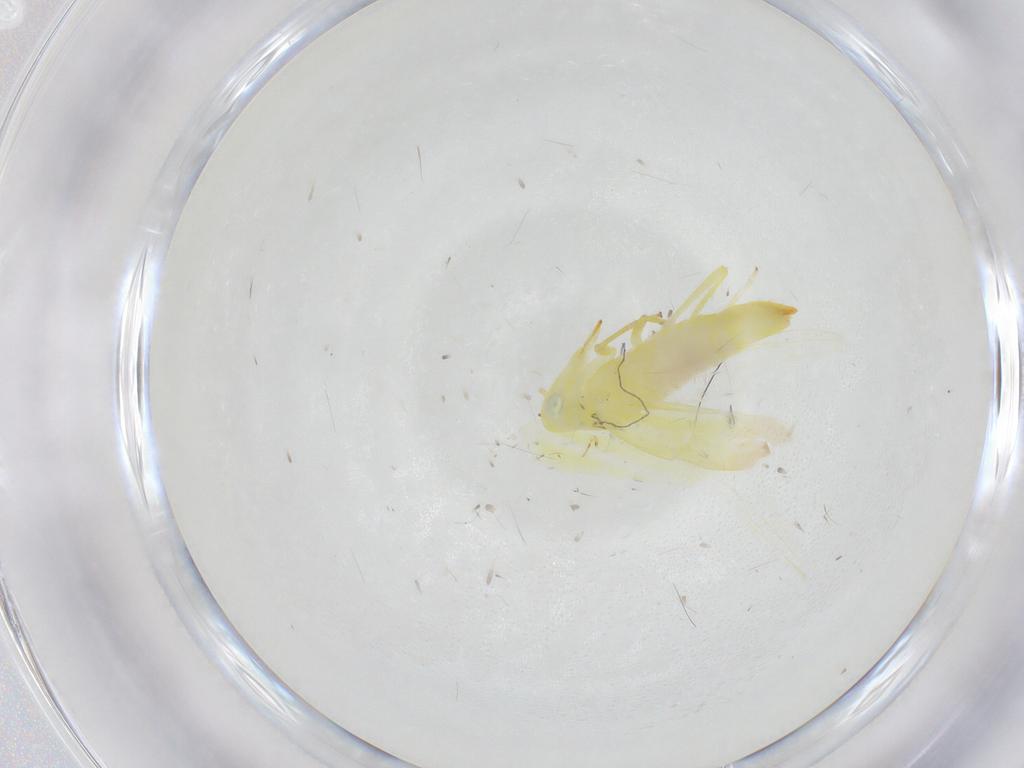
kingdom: Animalia
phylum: Arthropoda
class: Insecta
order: Hemiptera
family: Cicadellidae
